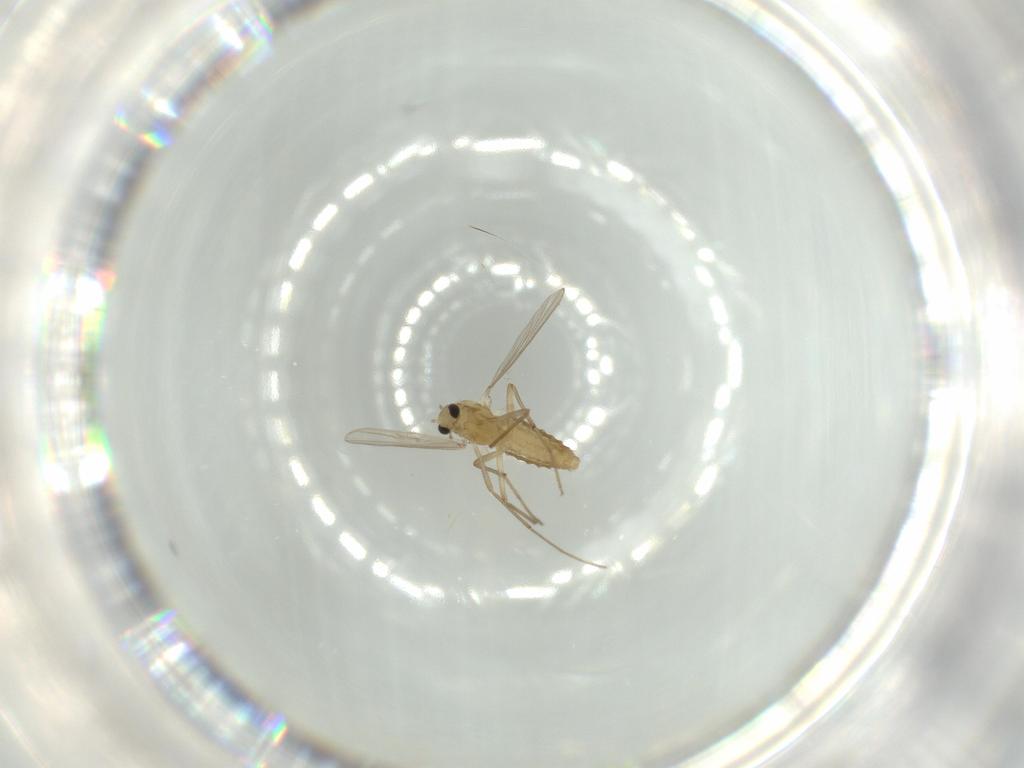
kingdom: Animalia
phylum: Arthropoda
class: Insecta
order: Diptera
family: Chironomidae
